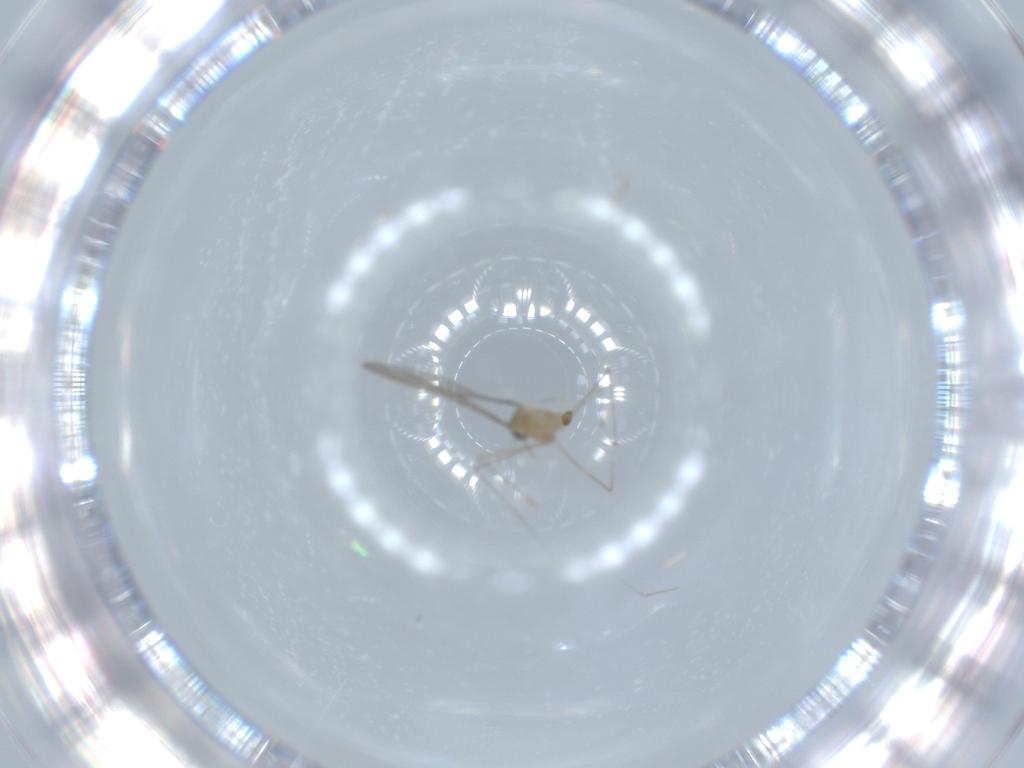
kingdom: Animalia
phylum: Arthropoda
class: Insecta
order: Diptera
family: Cecidomyiidae
